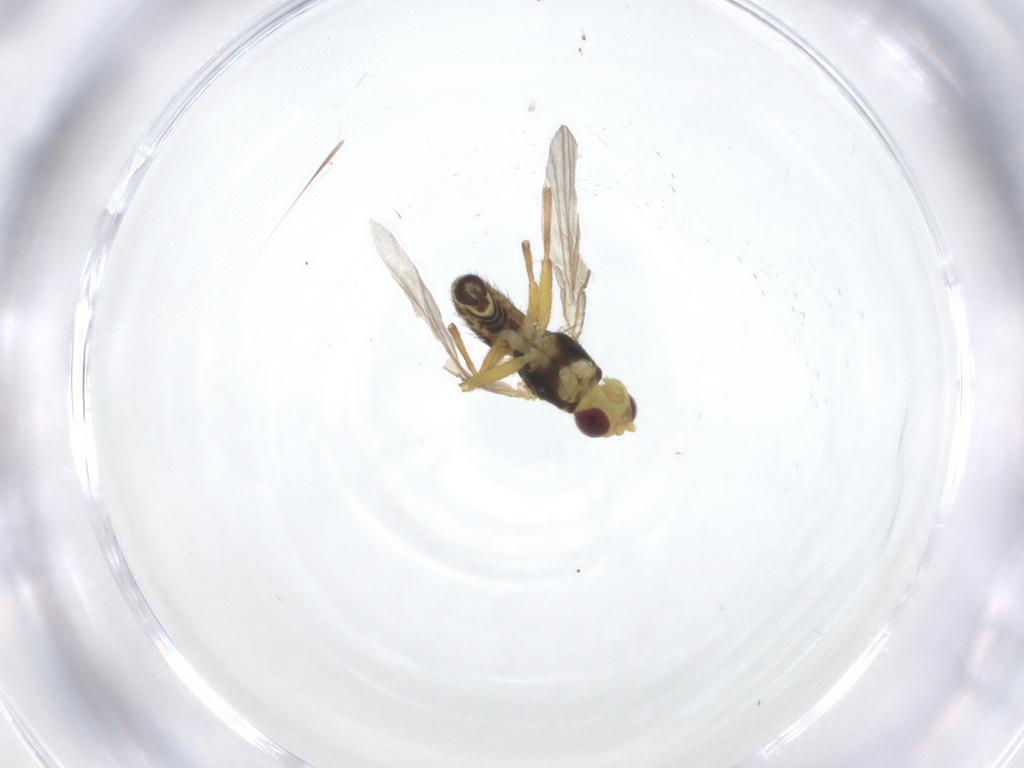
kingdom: Animalia
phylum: Arthropoda
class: Insecta
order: Diptera
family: Agromyzidae
